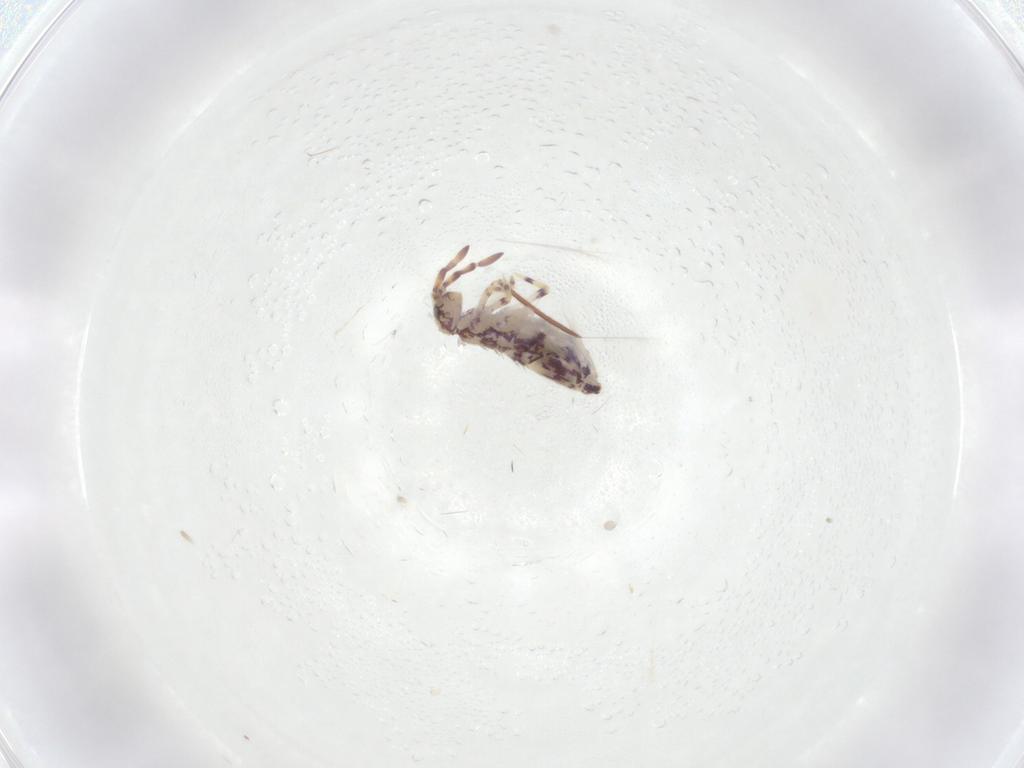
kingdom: Animalia
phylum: Arthropoda
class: Collembola
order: Entomobryomorpha
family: Entomobryidae
